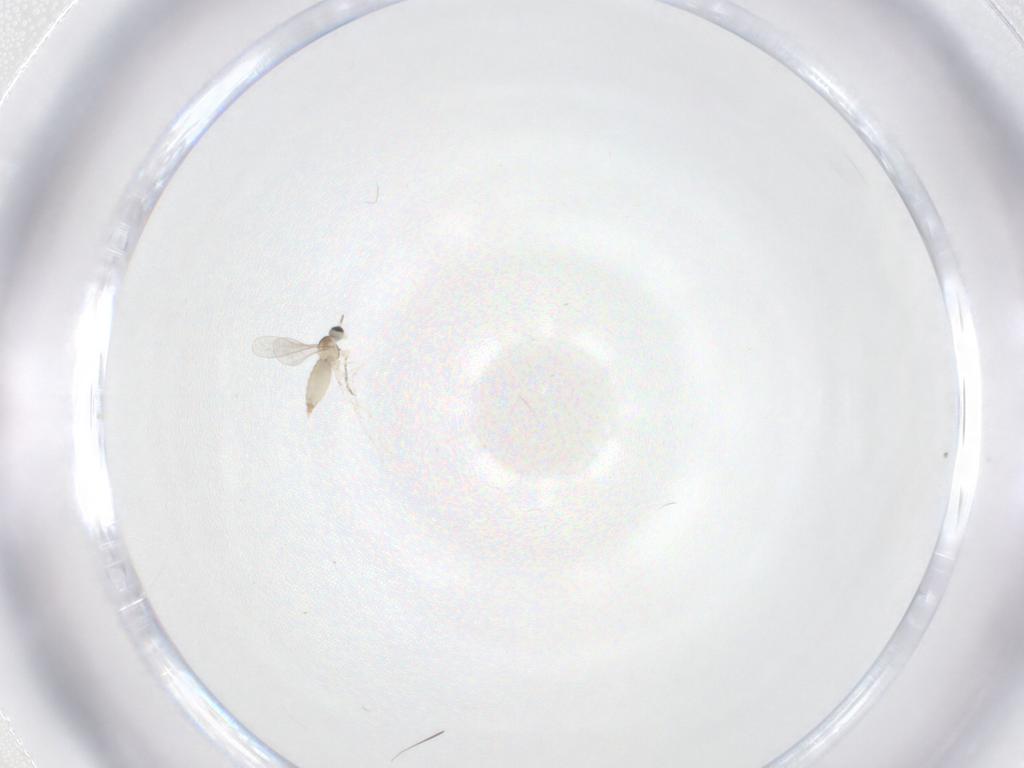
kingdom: Animalia
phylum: Arthropoda
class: Insecta
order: Diptera
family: Cecidomyiidae
